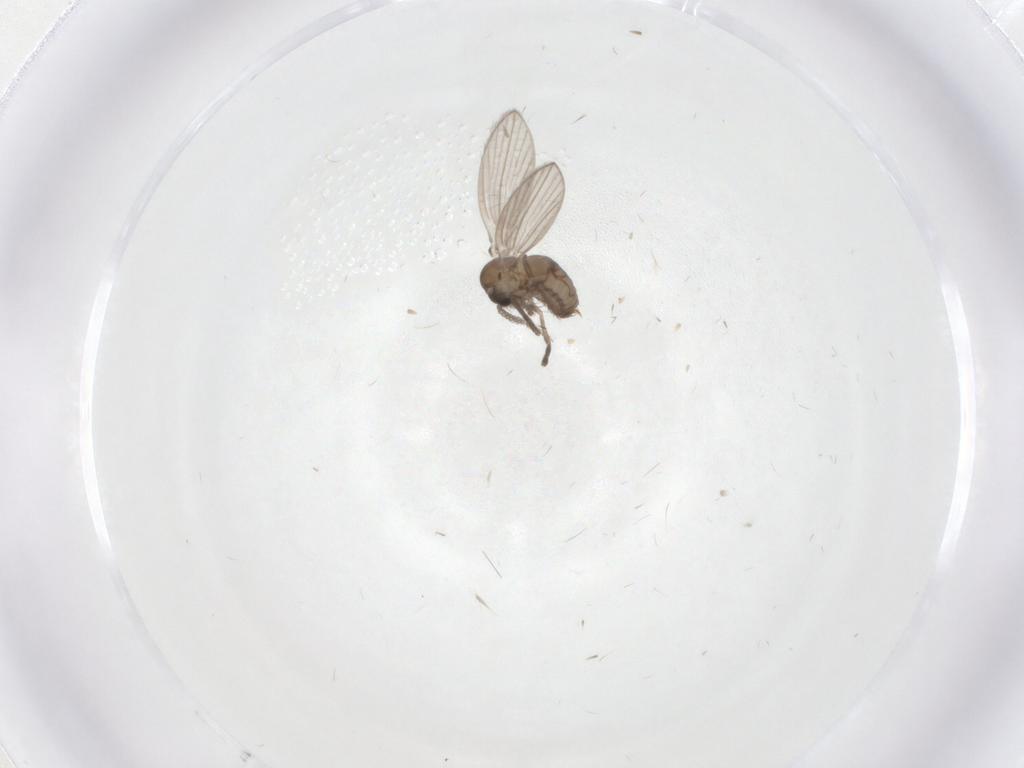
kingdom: Animalia
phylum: Arthropoda
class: Insecta
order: Diptera
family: Psychodidae
